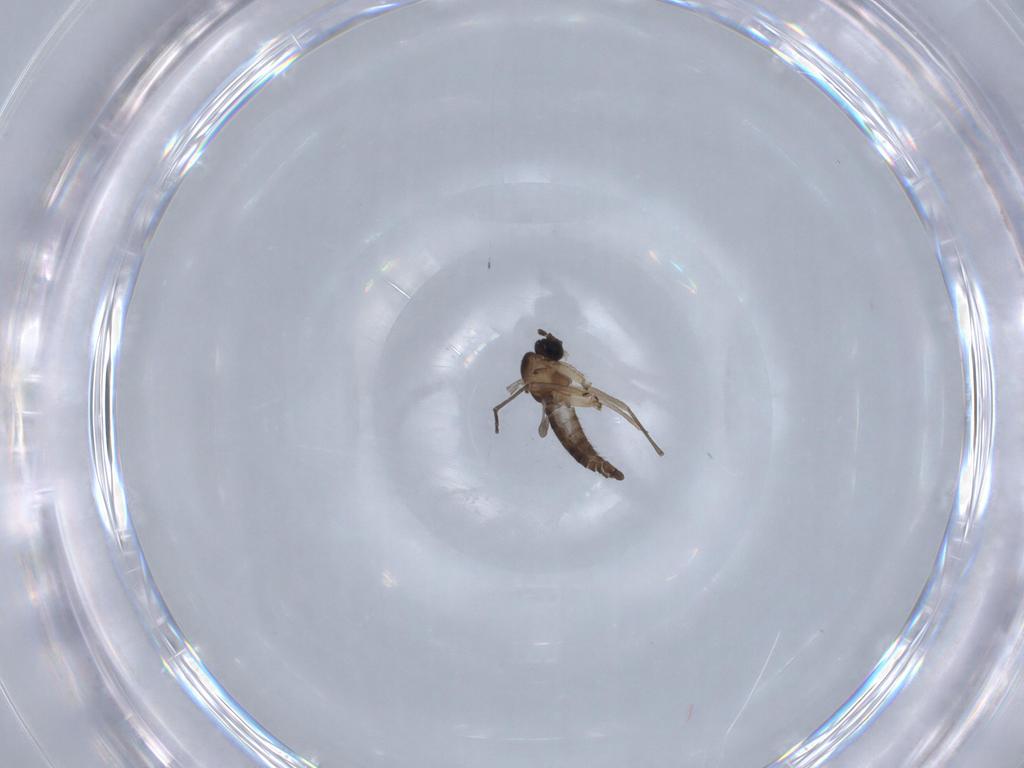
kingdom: Animalia
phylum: Arthropoda
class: Insecta
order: Diptera
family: Sciaridae
